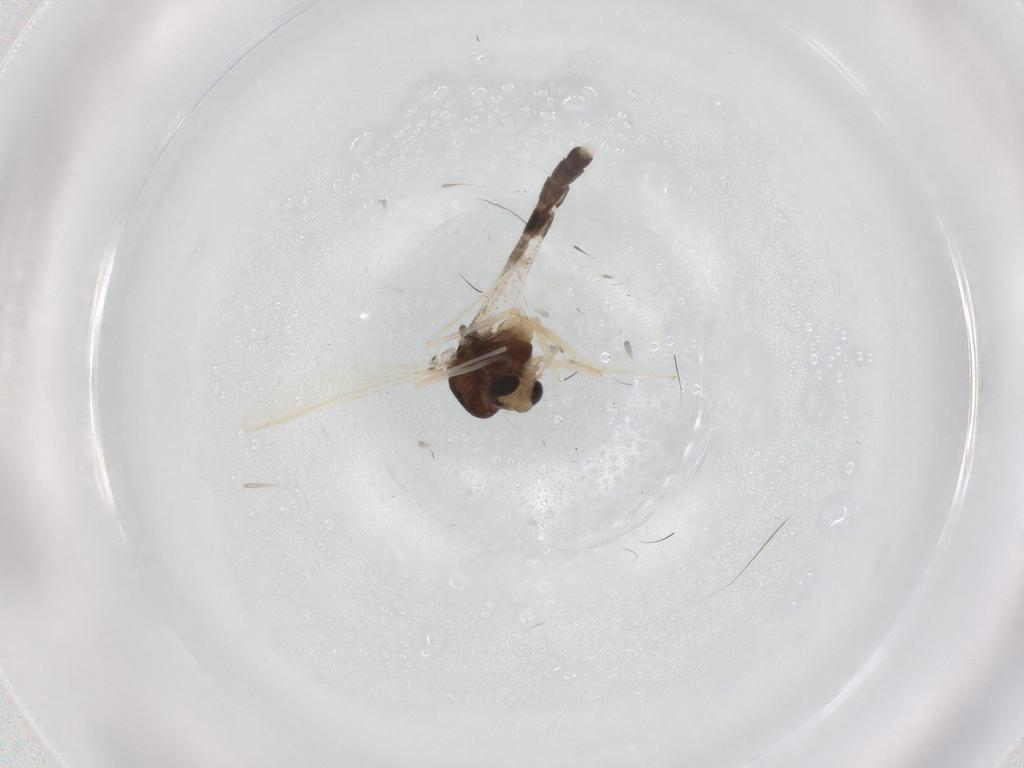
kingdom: Animalia
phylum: Arthropoda
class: Insecta
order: Diptera
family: Chironomidae
